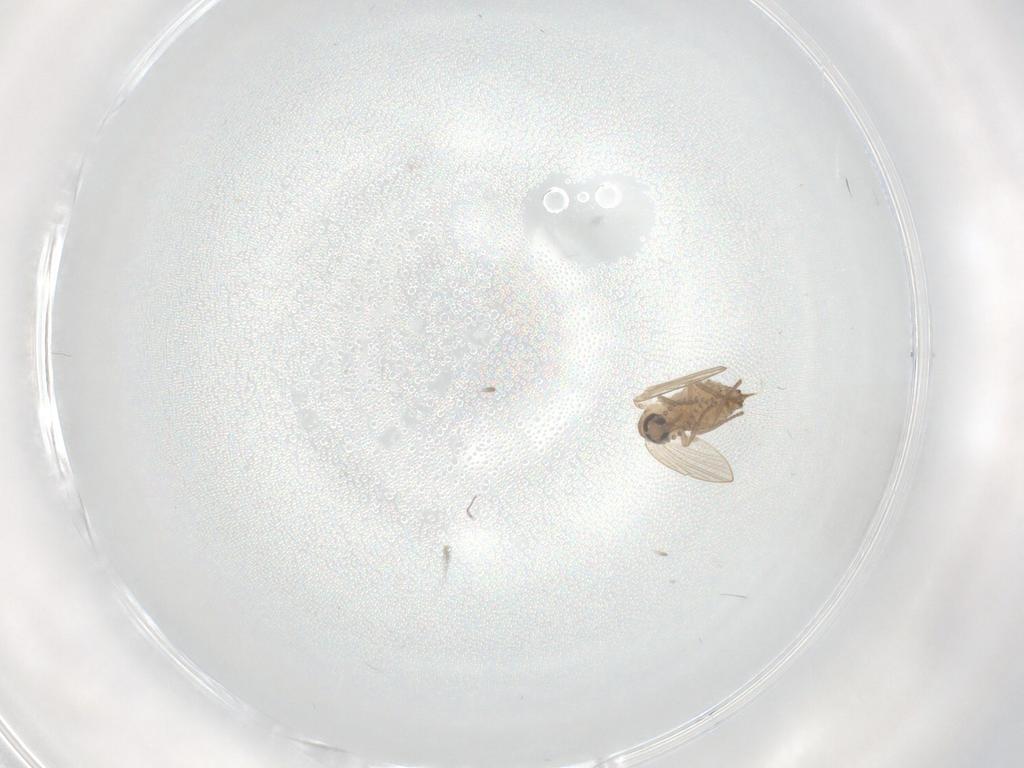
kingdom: Animalia
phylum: Arthropoda
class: Insecta
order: Diptera
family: Psychodidae
